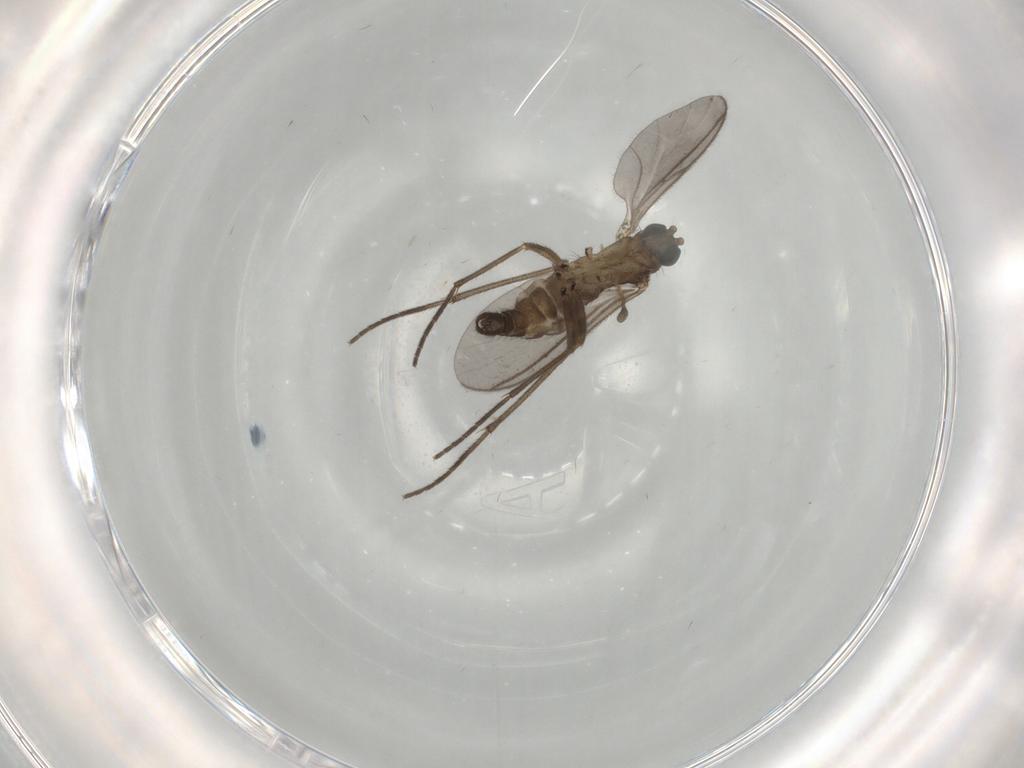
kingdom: Animalia
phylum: Arthropoda
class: Insecta
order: Diptera
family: Sciaridae
